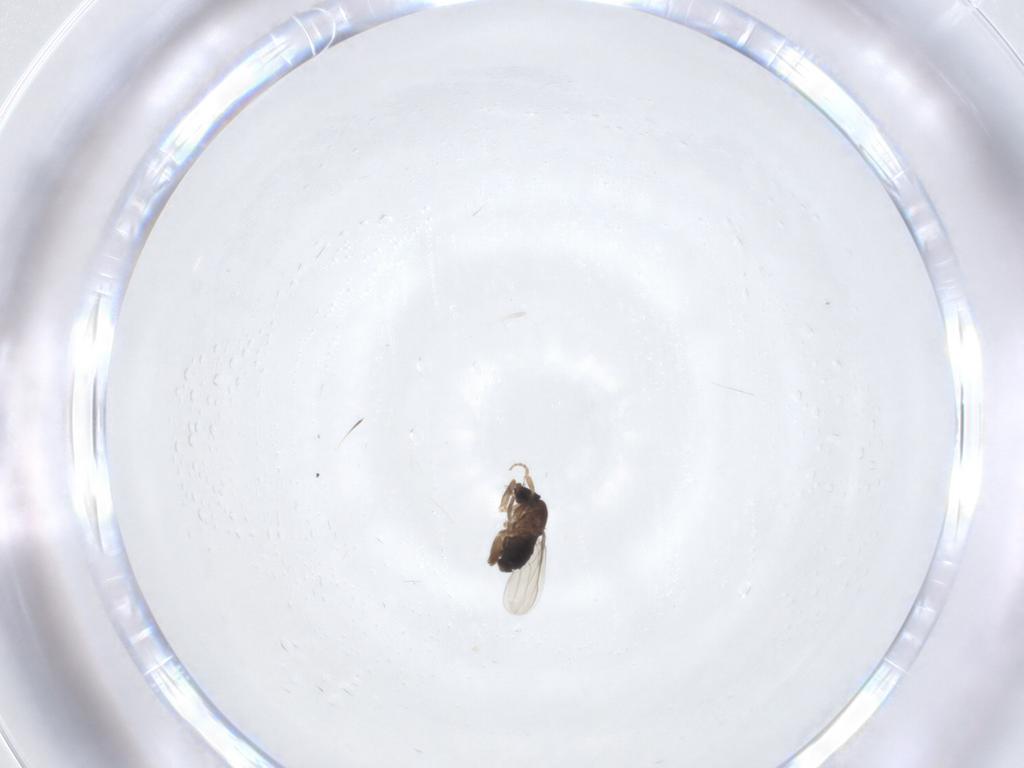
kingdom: Animalia
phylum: Arthropoda
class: Insecta
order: Diptera
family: Phoridae
